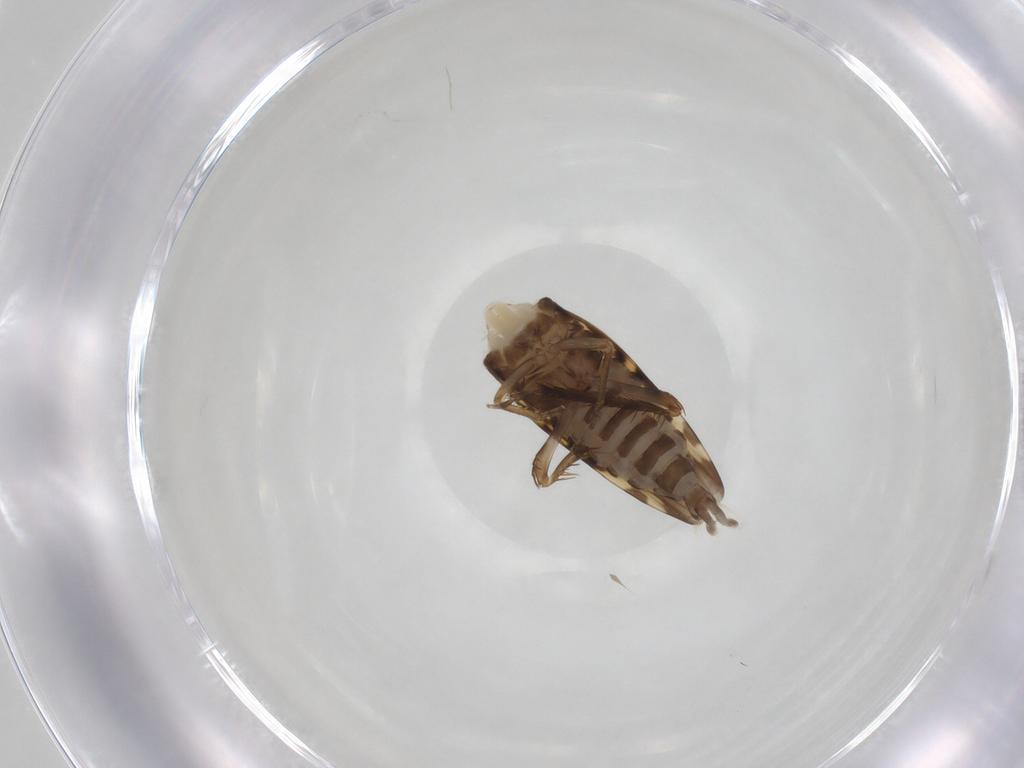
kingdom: Animalia
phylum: Arthropoda
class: Insecta
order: Hemiptera
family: Cicadellidae
